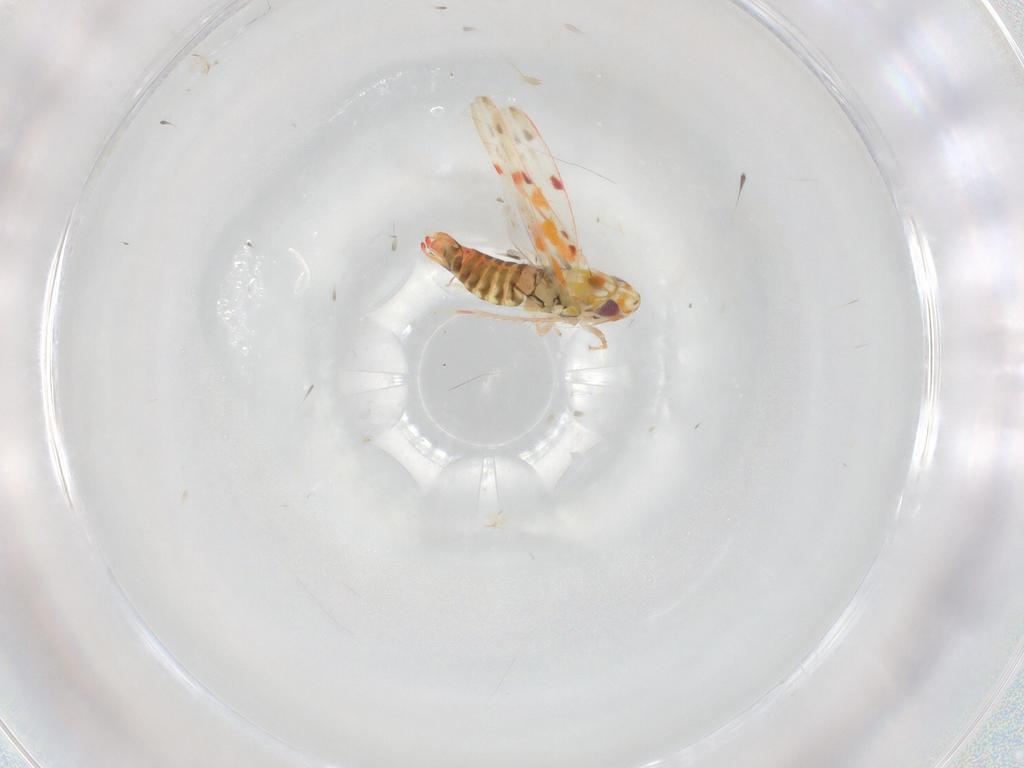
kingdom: Animalia
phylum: Arthropoda
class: Insecta
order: Hemiptera
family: Cicadellidae
